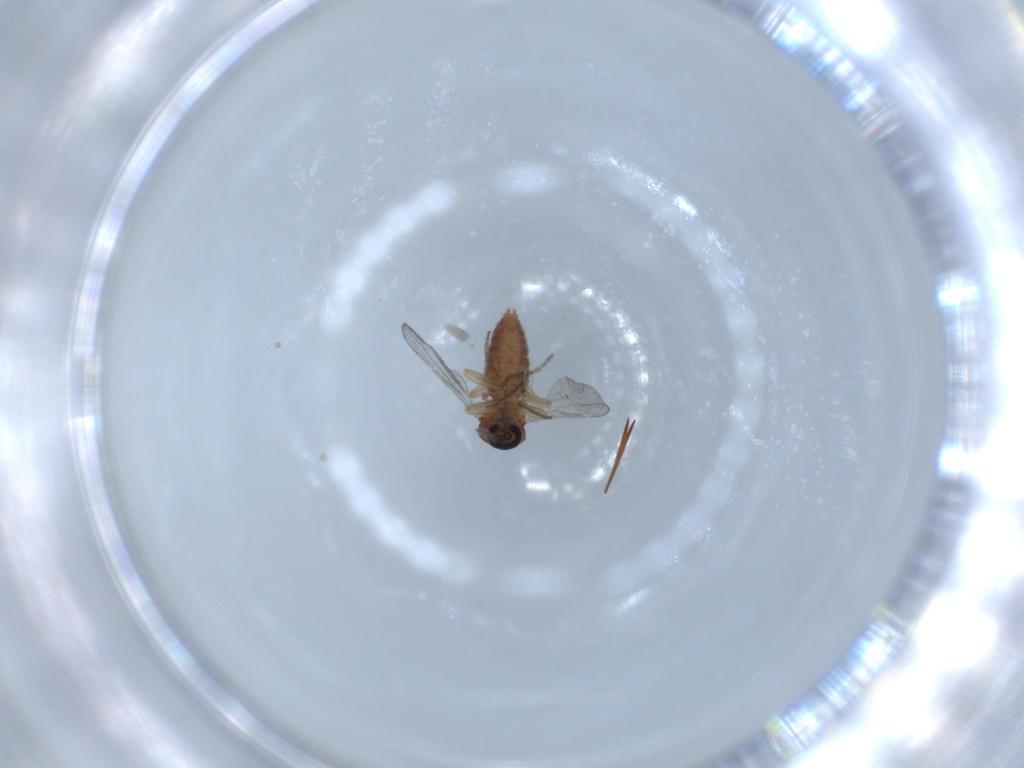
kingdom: Animalia
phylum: Arthropoda
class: Insecta
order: Diptera
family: Ceratopogonidae
